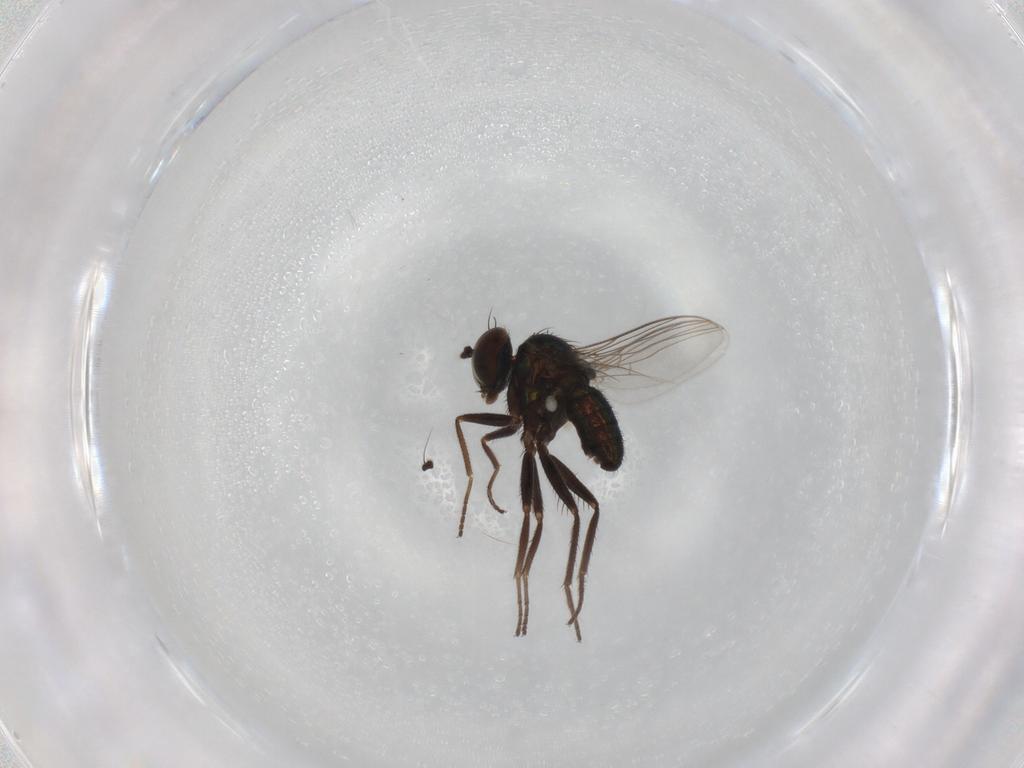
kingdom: Animalia
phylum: Arthropoda
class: Insecta
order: Diptera
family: Dolichopodidae
